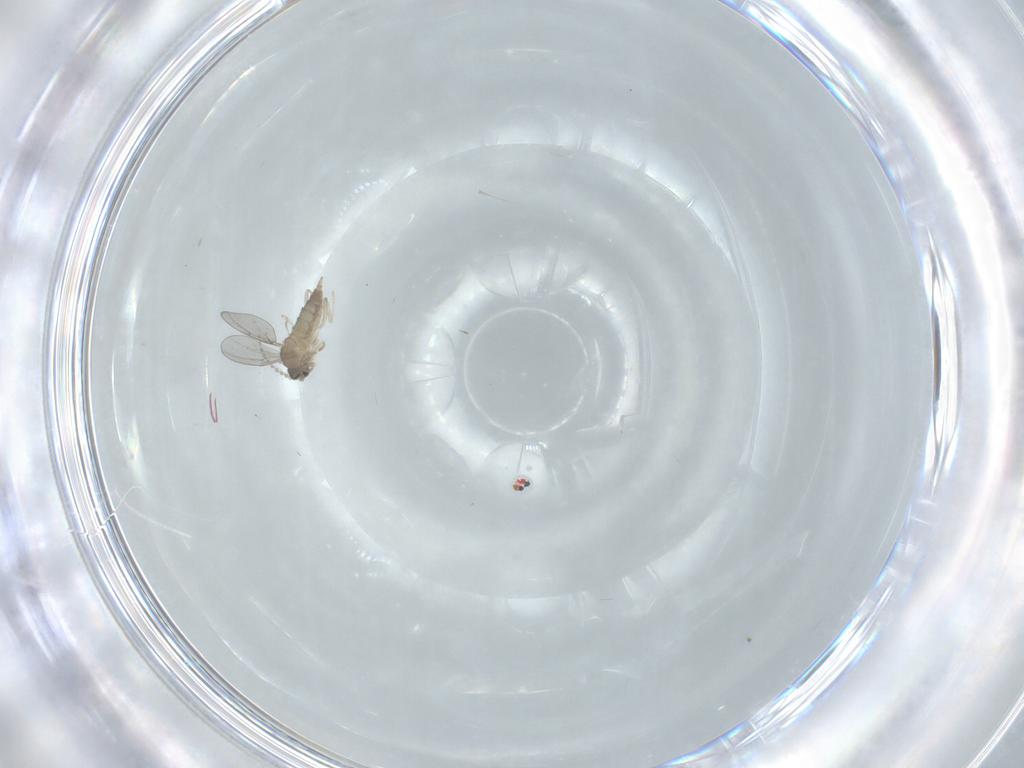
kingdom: Animalia
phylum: Arthropoda
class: Insecta
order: Diptera
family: Cecidomyiidae
